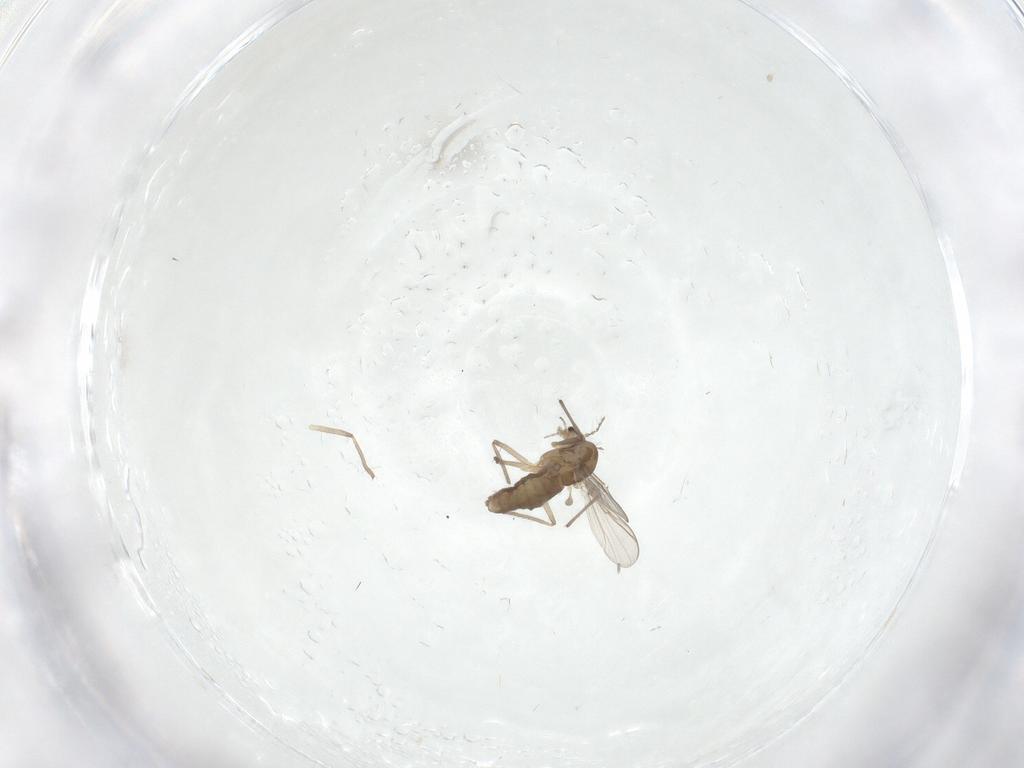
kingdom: Animalia
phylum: Arthropoda
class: Insecta
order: Diptera
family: Chironomidae
